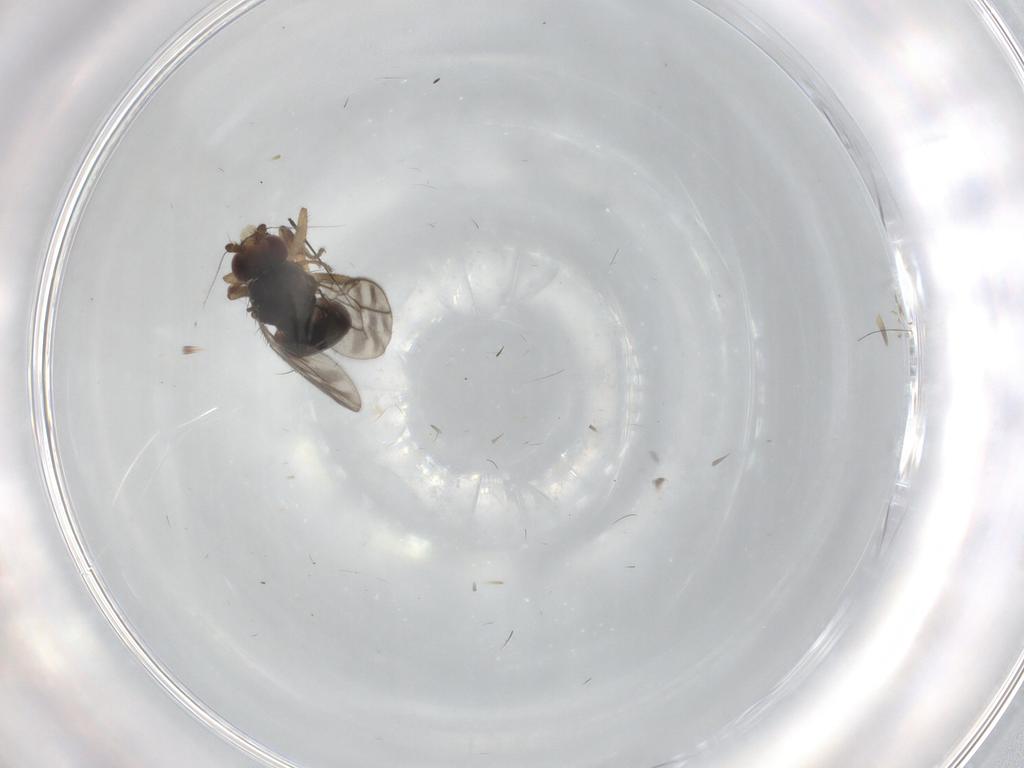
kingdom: Animalia
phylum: Arthropoda
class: Insecta
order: Diptera
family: Sphaeroceridae
